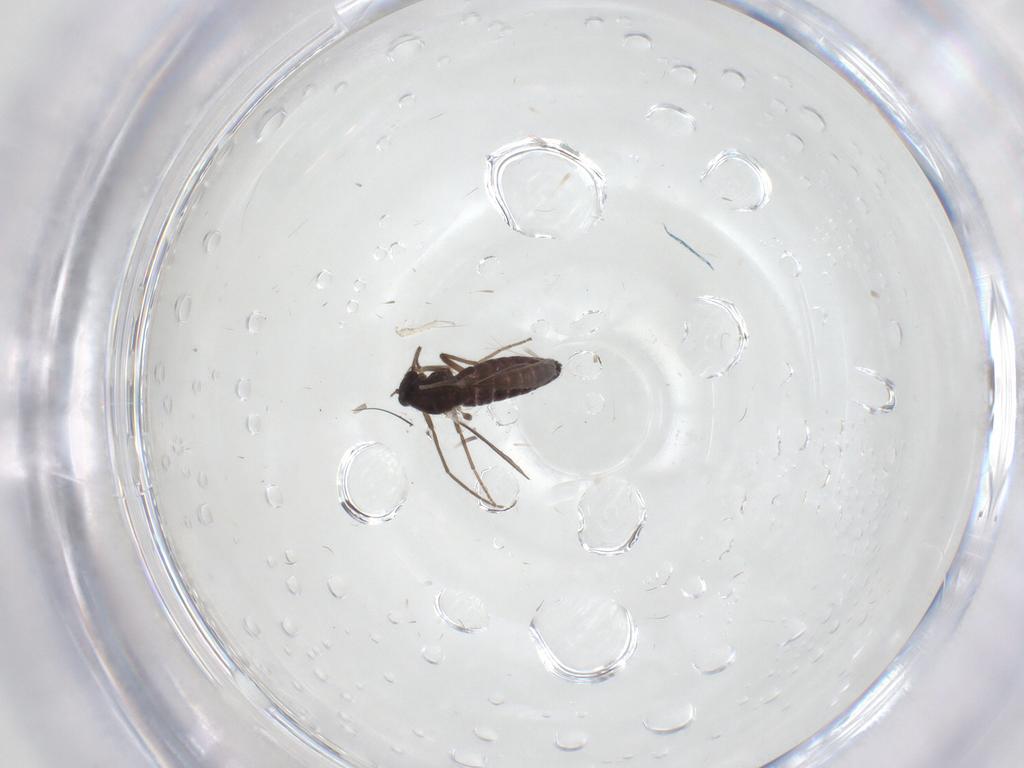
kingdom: Animalia
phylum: Arthropoda
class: Insecta
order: Diptera
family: Chironomidae
